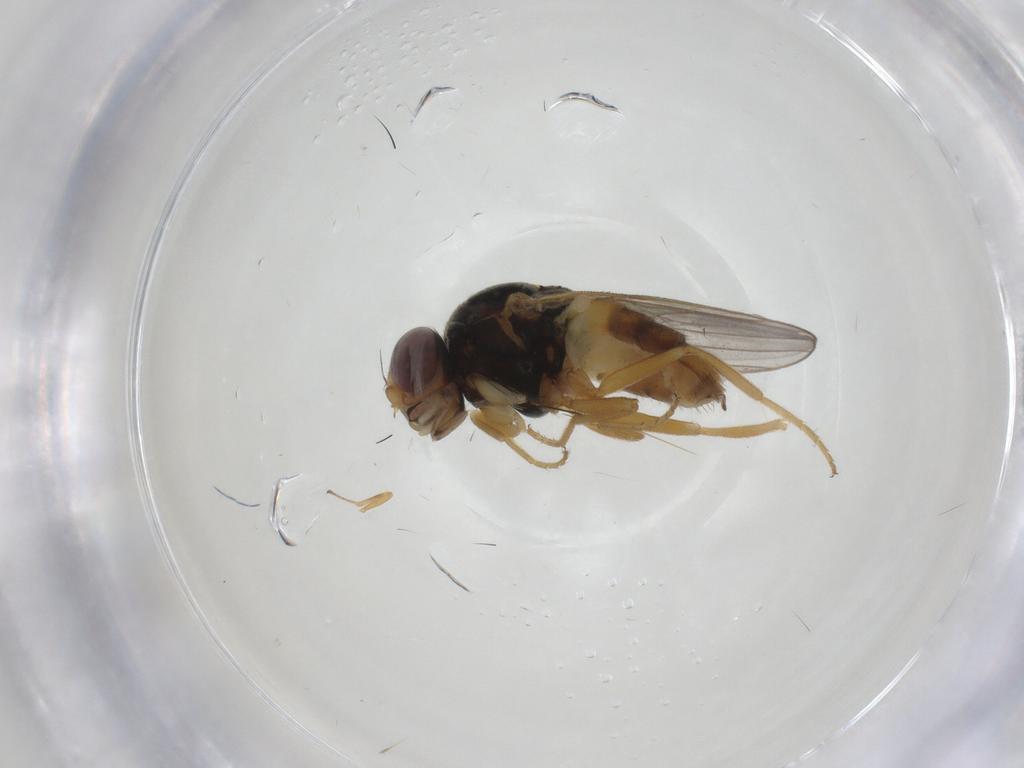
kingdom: Animalia
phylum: Arthropoda
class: Insecta
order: Diptera
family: Chloropidae
